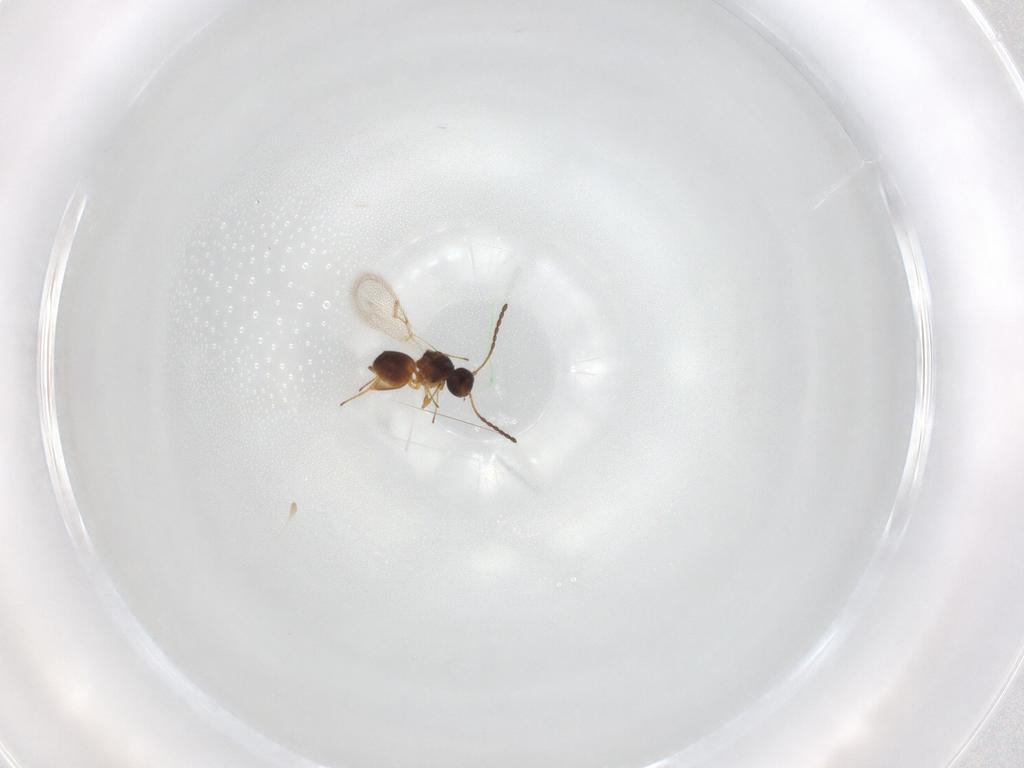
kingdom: Animalia
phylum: Arthropoda
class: Insecta
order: Hymenoptera
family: Figitidae
